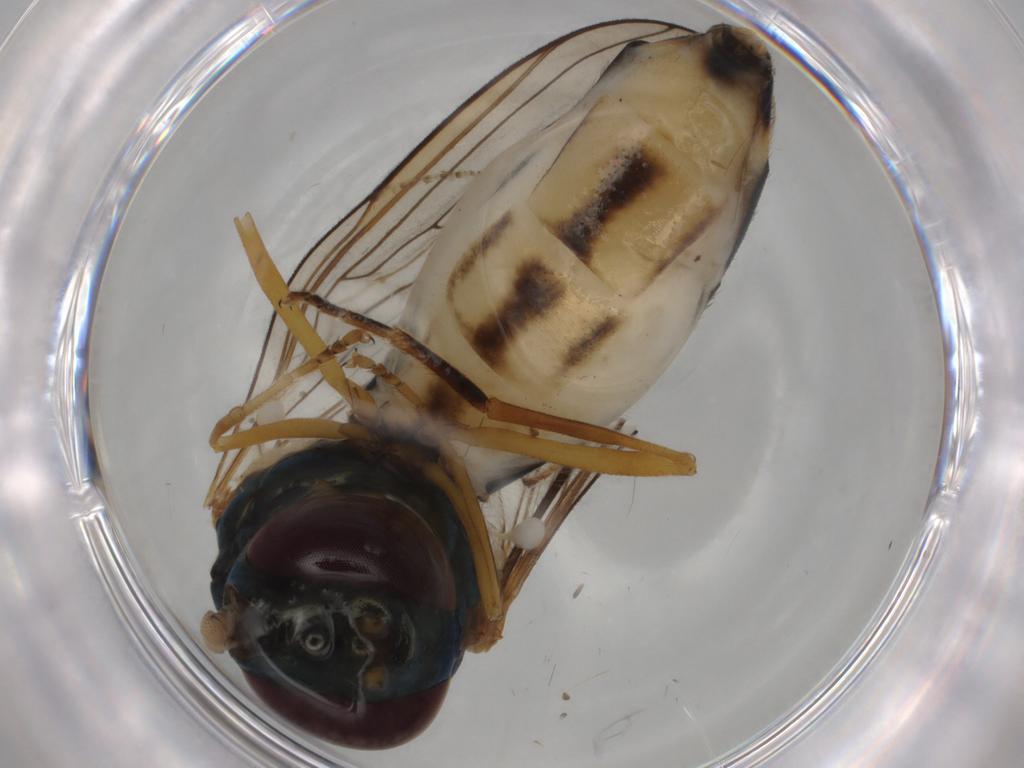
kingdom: Animalia
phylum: Arthropoda
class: Insecta
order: Diptera
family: Syrphidae
